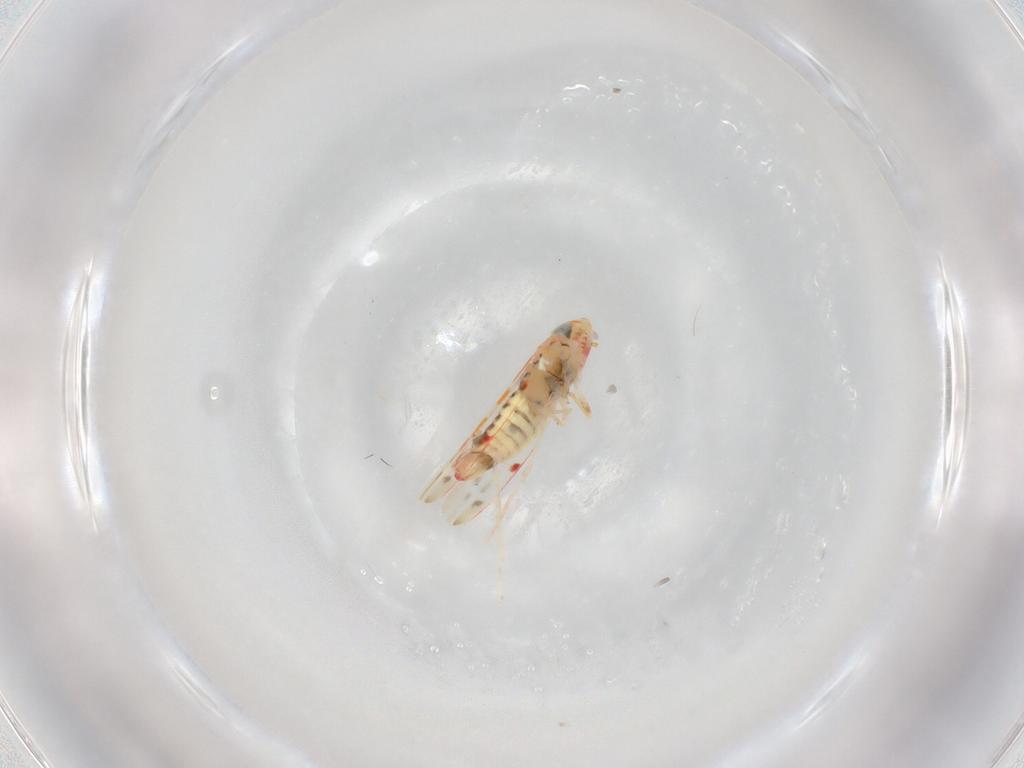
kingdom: Animalia
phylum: Arthropoda
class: Insecta
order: Hemiptera
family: Cicadellidae
